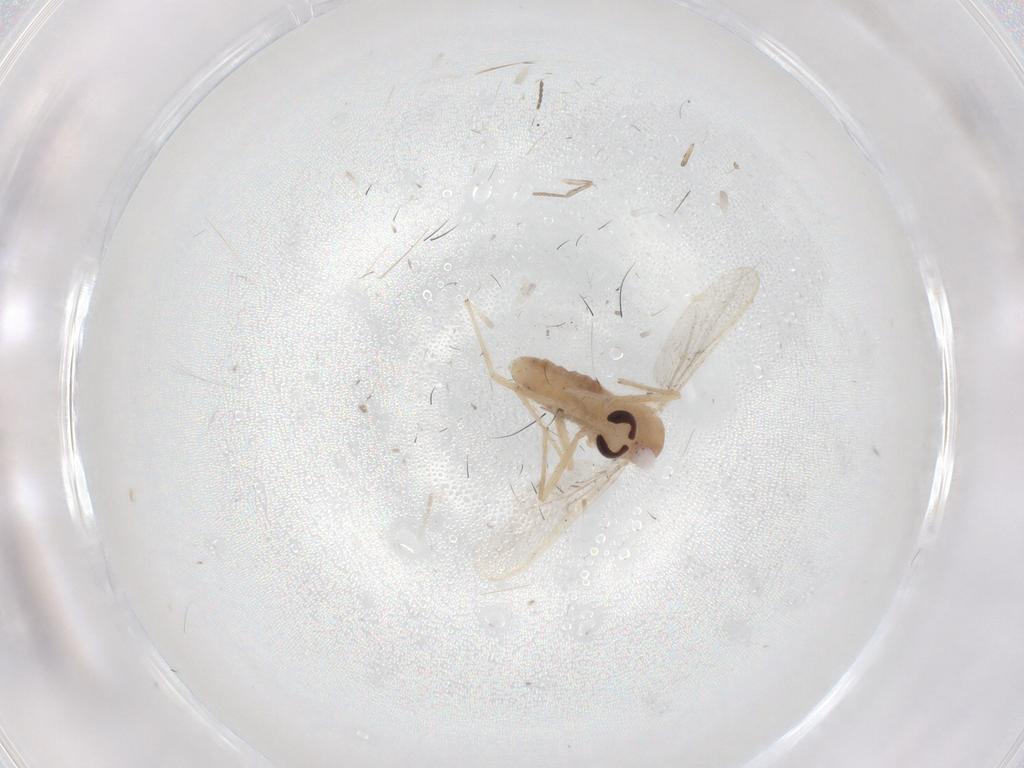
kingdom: Animalia
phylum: Arthropoda
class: Insecta
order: Diptera
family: Chironomidae
